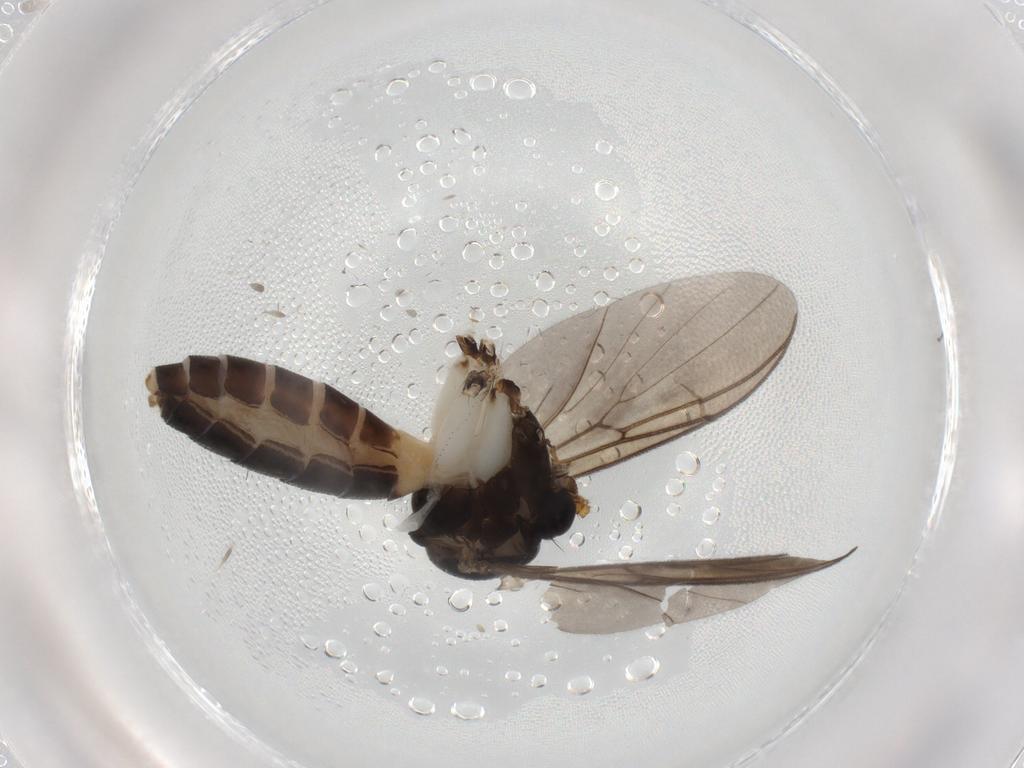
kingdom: Animalia
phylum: Arthropoda
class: Insecta
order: Diptera
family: Mycetophilidae
